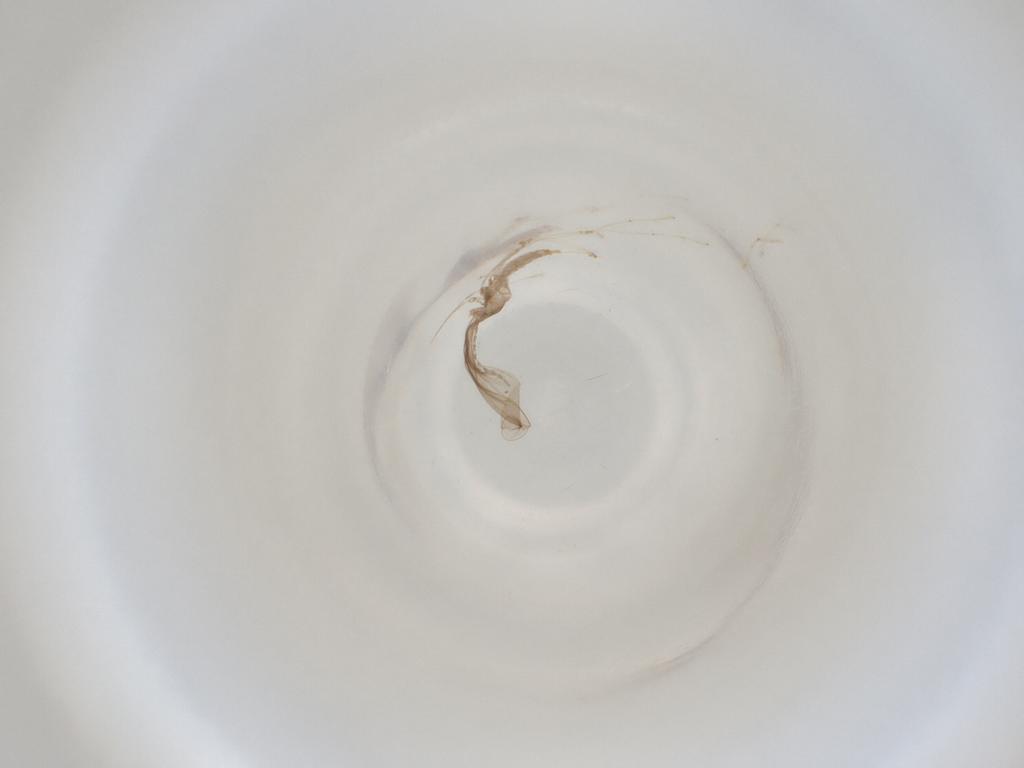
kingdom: Animalia
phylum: Arthropoda
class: Insecta
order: Diptera
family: Cecidomyiidae
